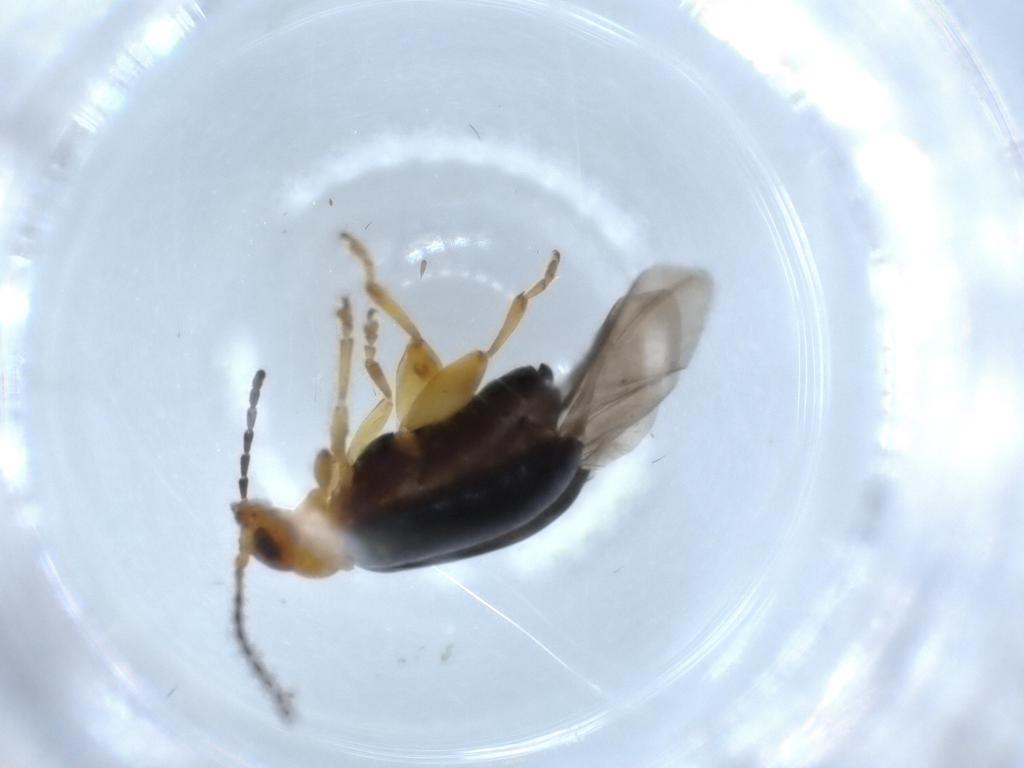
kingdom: Animalia
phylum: Arthropoda
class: Insecta
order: Coleoptera
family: Chrysomelidae
